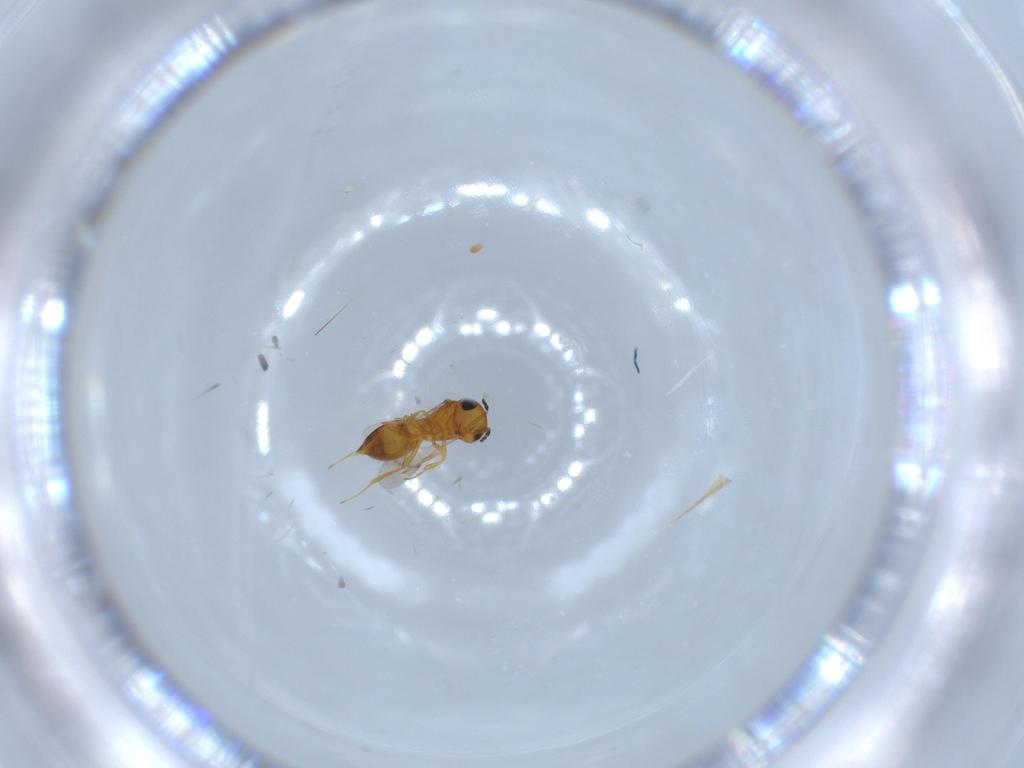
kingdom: Animalia
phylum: Arthropoda
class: Insecta
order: Hymenoptera
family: Scelionidae
